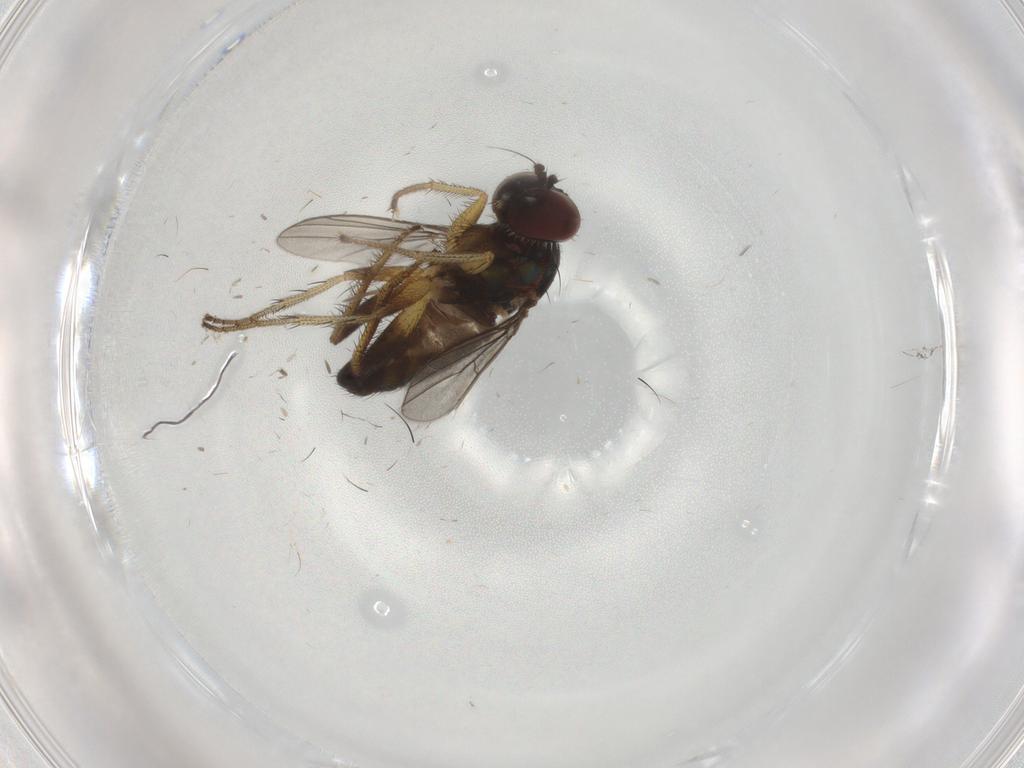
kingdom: Animalia
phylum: Arthropoda
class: Insecta
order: Diptera
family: Dolichopodidae
